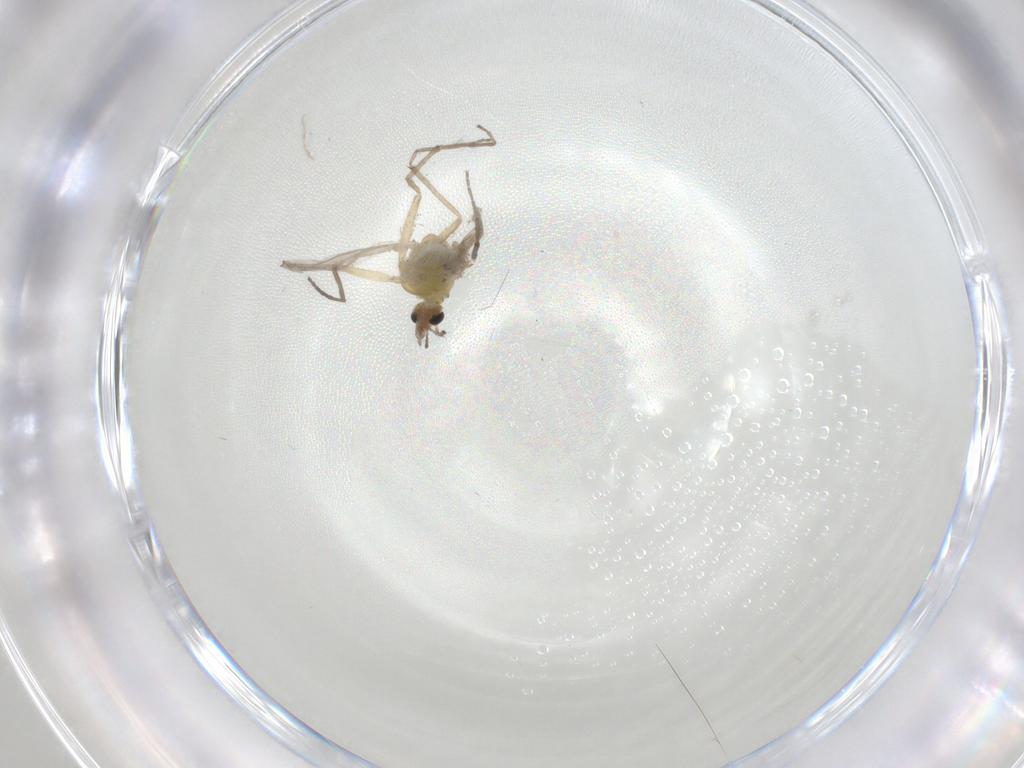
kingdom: Animalia
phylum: Arthropoda
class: Insecta
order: Diptera
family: Chironomidae
